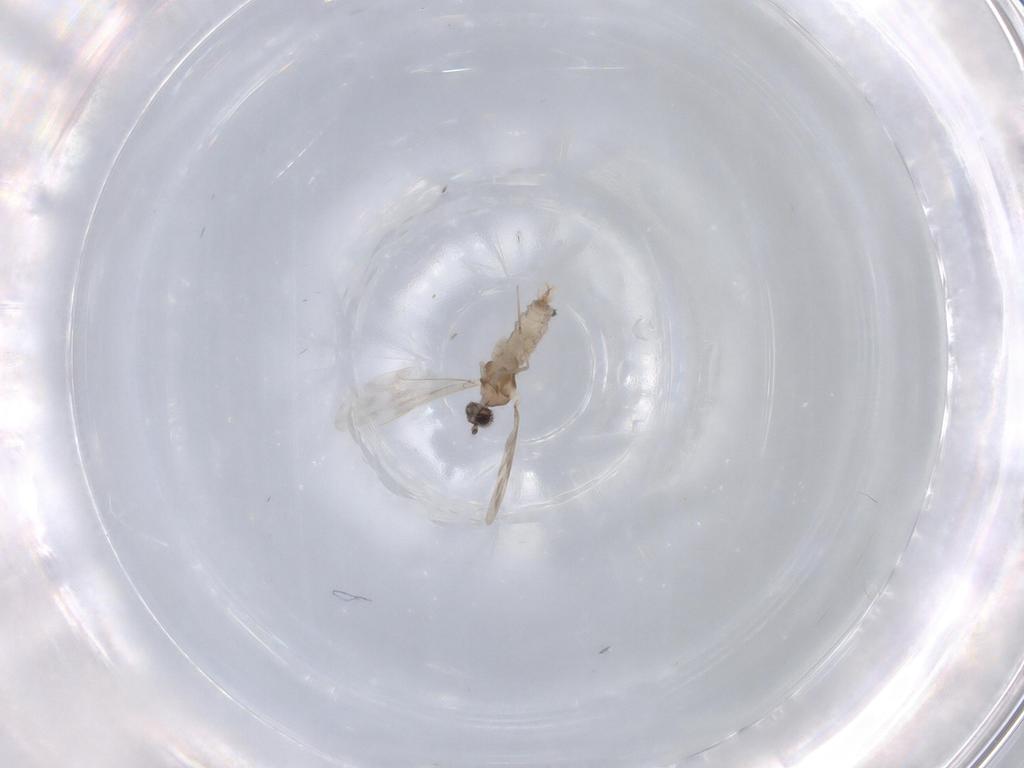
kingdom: Animalia
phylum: Arthropoda
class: Insecta
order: Diptera
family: Cecidomyiidae
